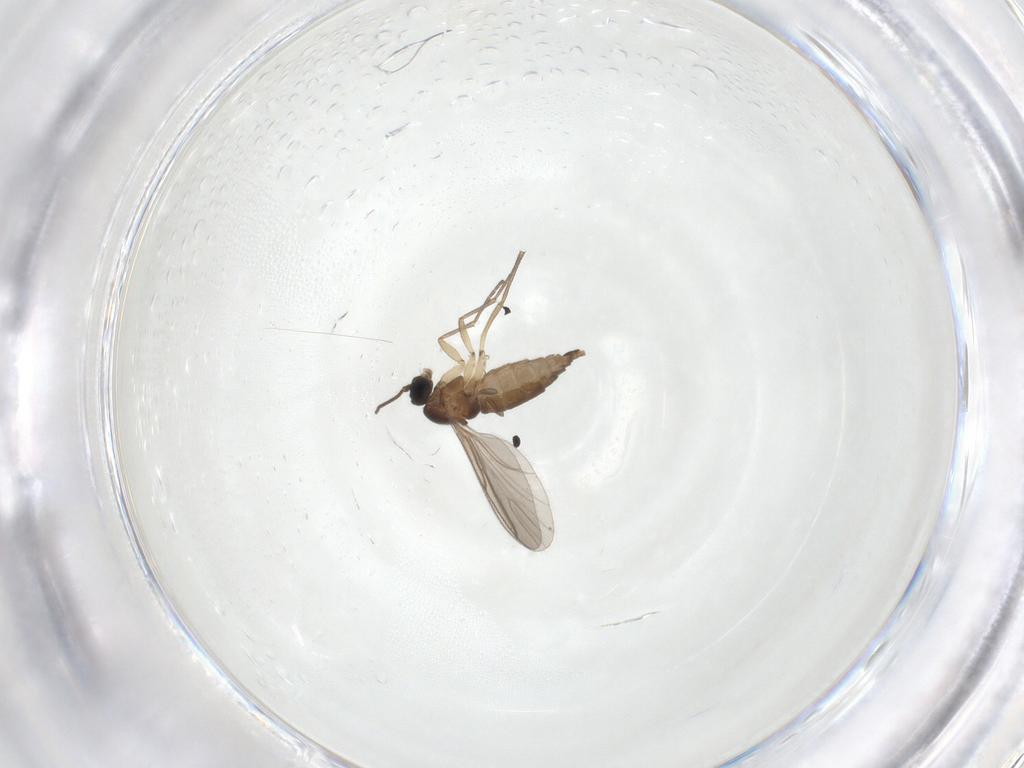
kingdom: Animalia
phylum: Arthropoda
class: Insecta
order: Diptera
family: Sciaridae
